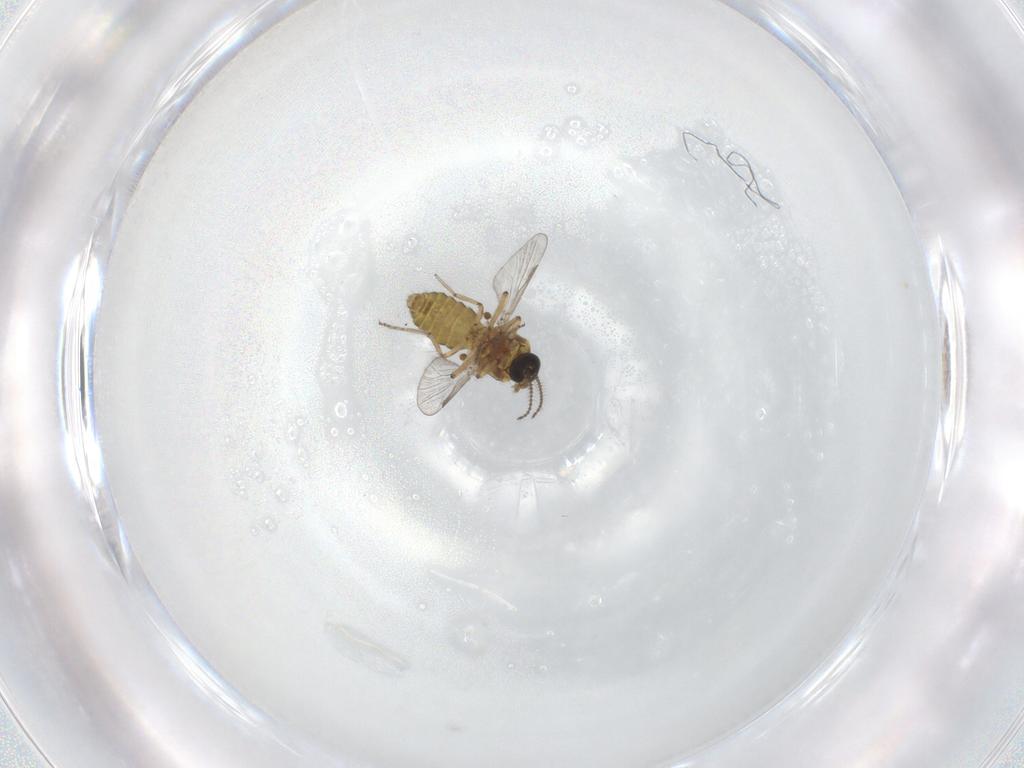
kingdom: Animalia
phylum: Arthropoda
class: Insecta
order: Diptera
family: Ceratopogonidae
